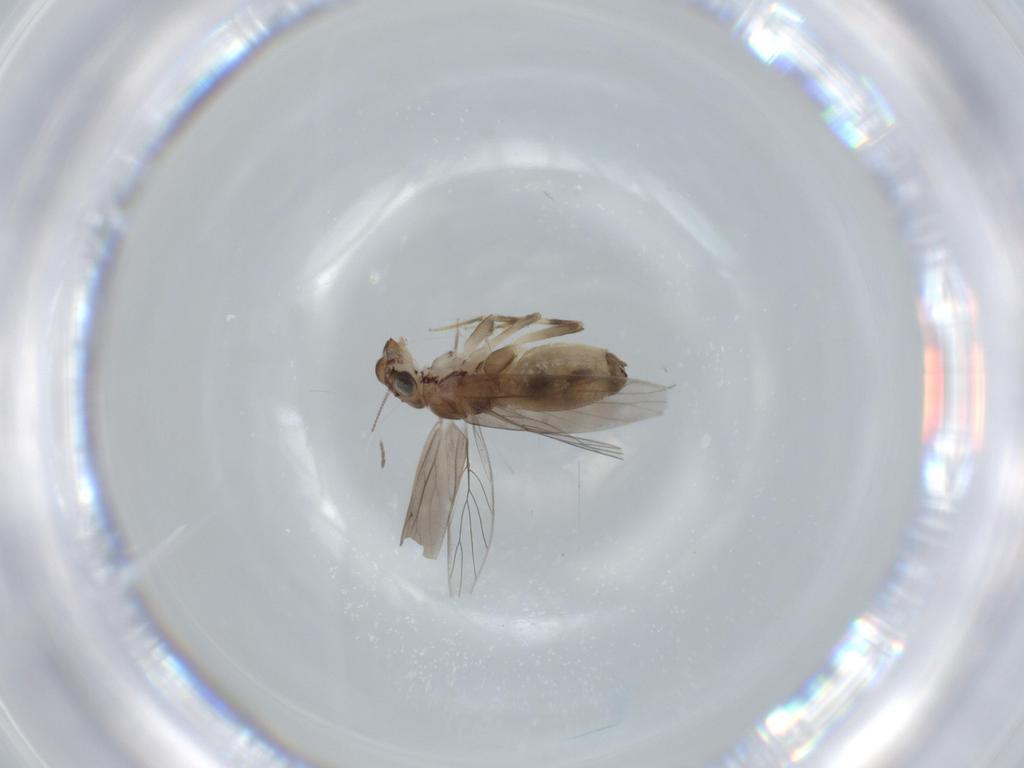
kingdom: Animalia
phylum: Arthropoda
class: Insecta
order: Psocodea
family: Lepidopsocidae
